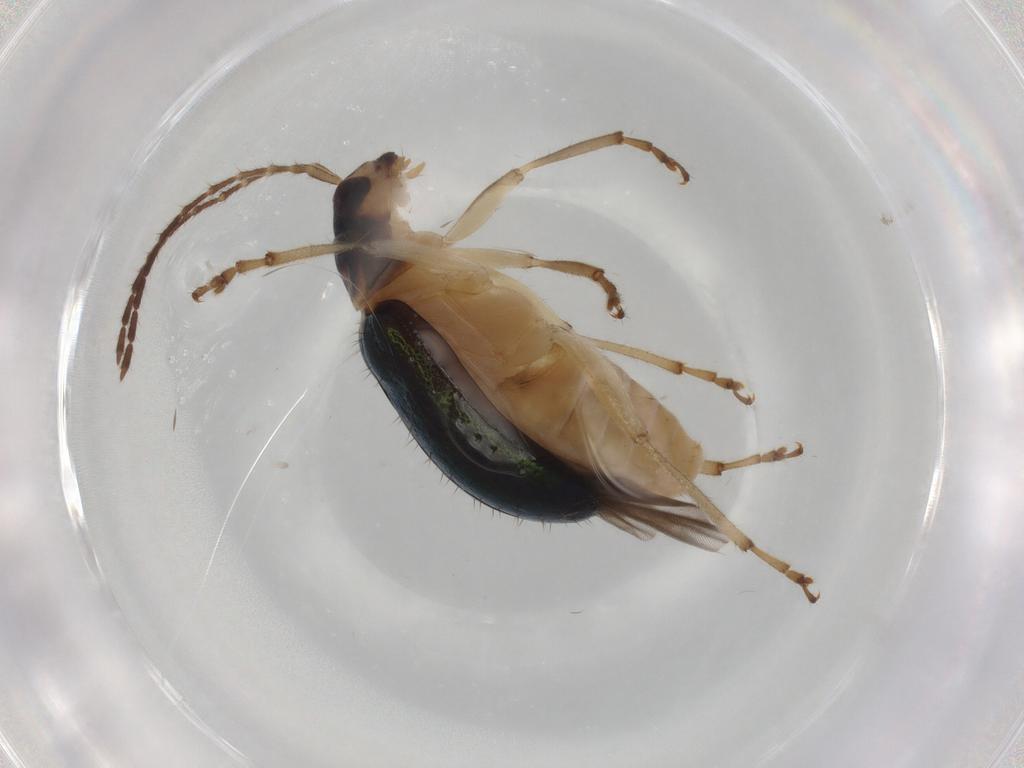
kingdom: Animalia
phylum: Arthropoda
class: Insecta
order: Coleoptera
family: Chrysomelidae
